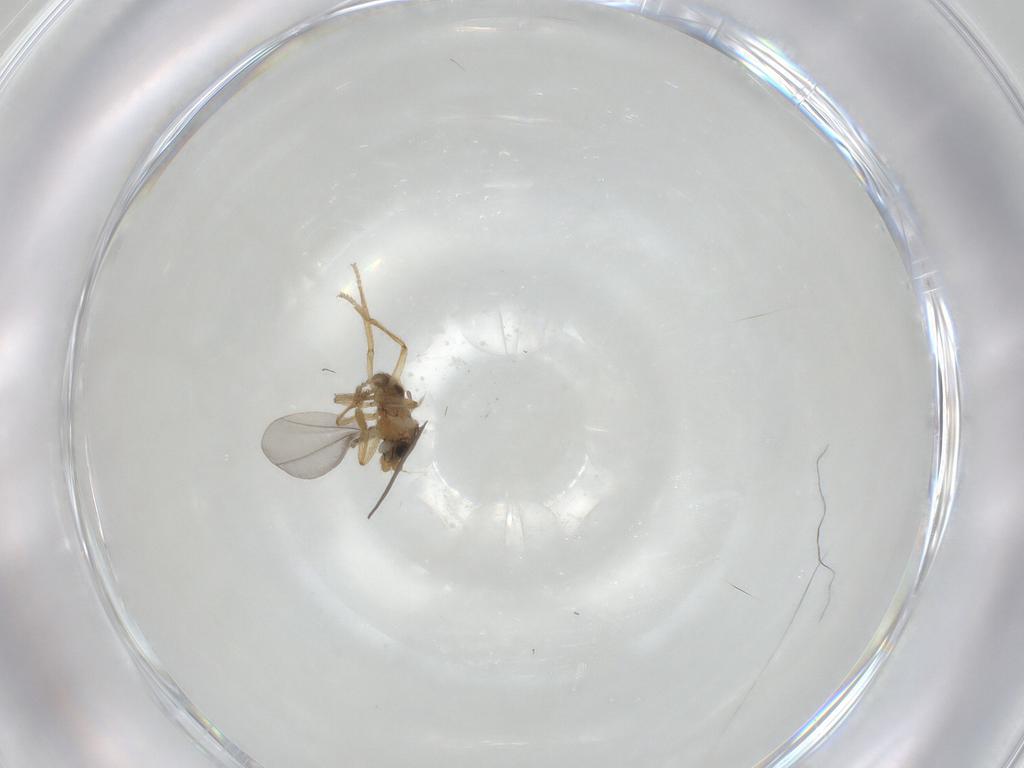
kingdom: Animalia
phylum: Arthropoda
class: Insecta
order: Diptera
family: Phoridae
